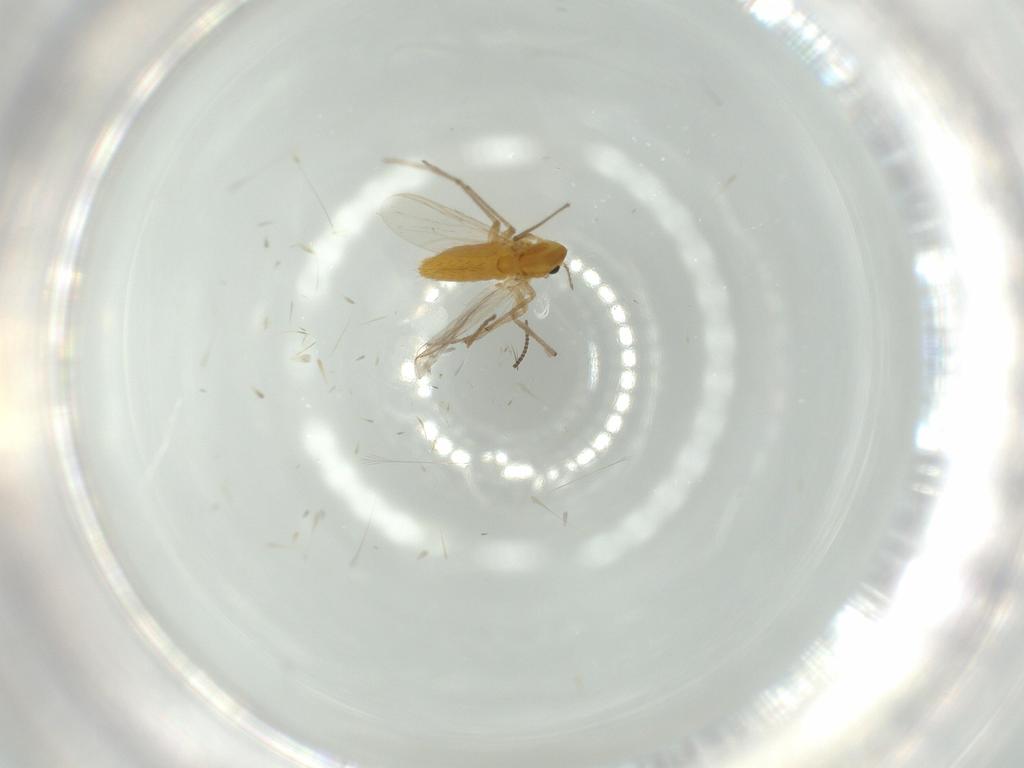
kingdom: Animalia
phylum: Arthropoda
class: Insecta
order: Diptera
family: Chironomidae
